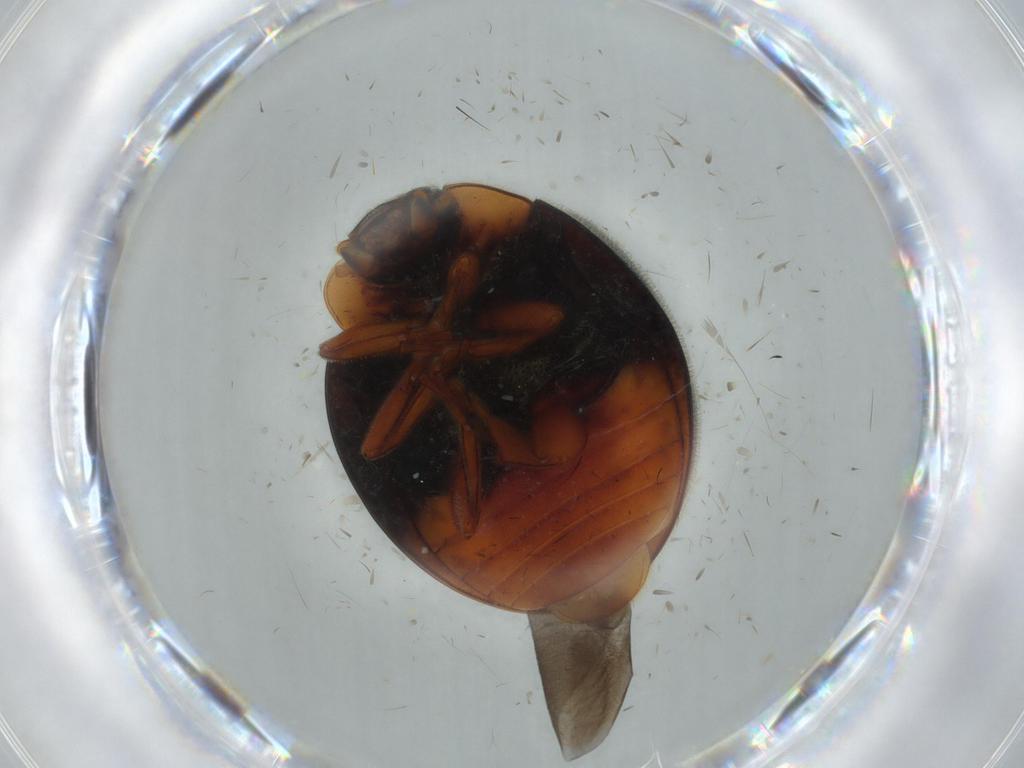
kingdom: Animalia
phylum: Arthropoda
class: Insecta
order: Coleoptera
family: Coccinellidae
